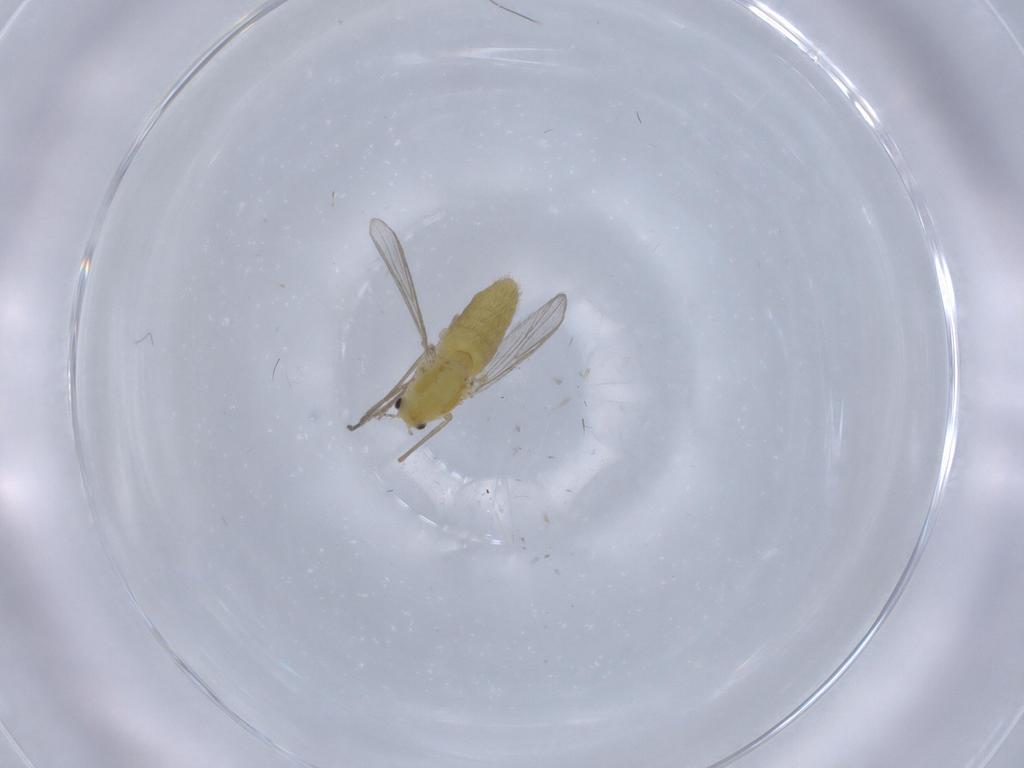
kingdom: Animalia
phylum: Arthropoda
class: Insecta
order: Diptera
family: Chironomidae
